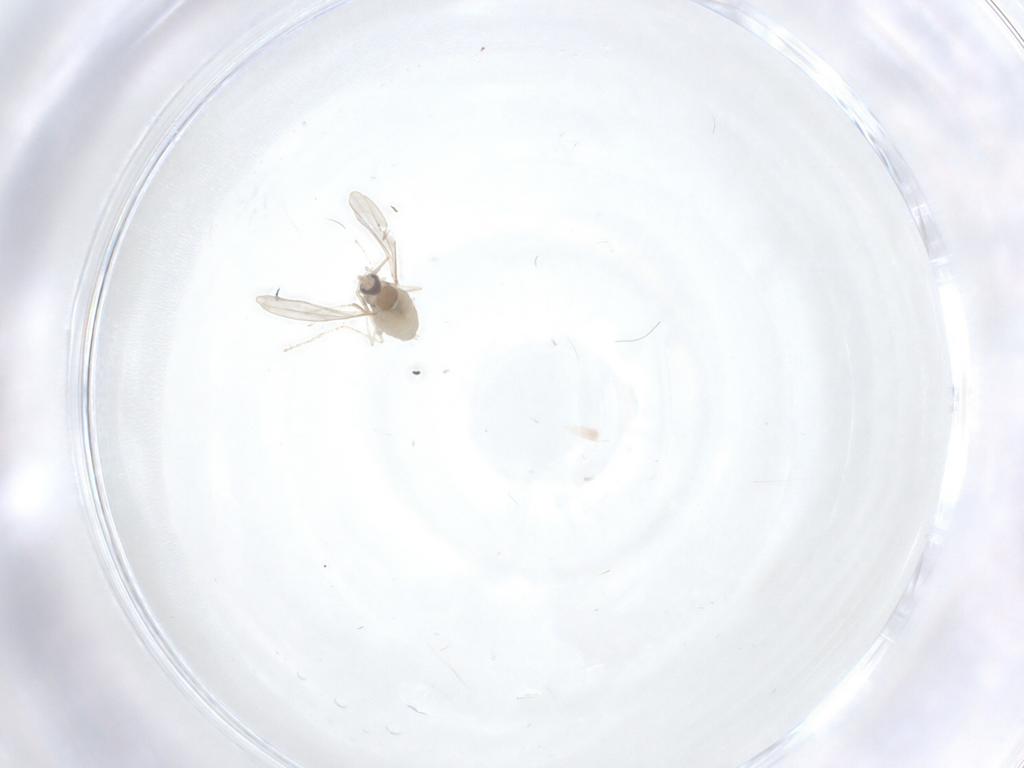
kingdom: Animalia
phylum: Arthropoda
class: Insecta
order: Diptera
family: Cecidomyiidae
